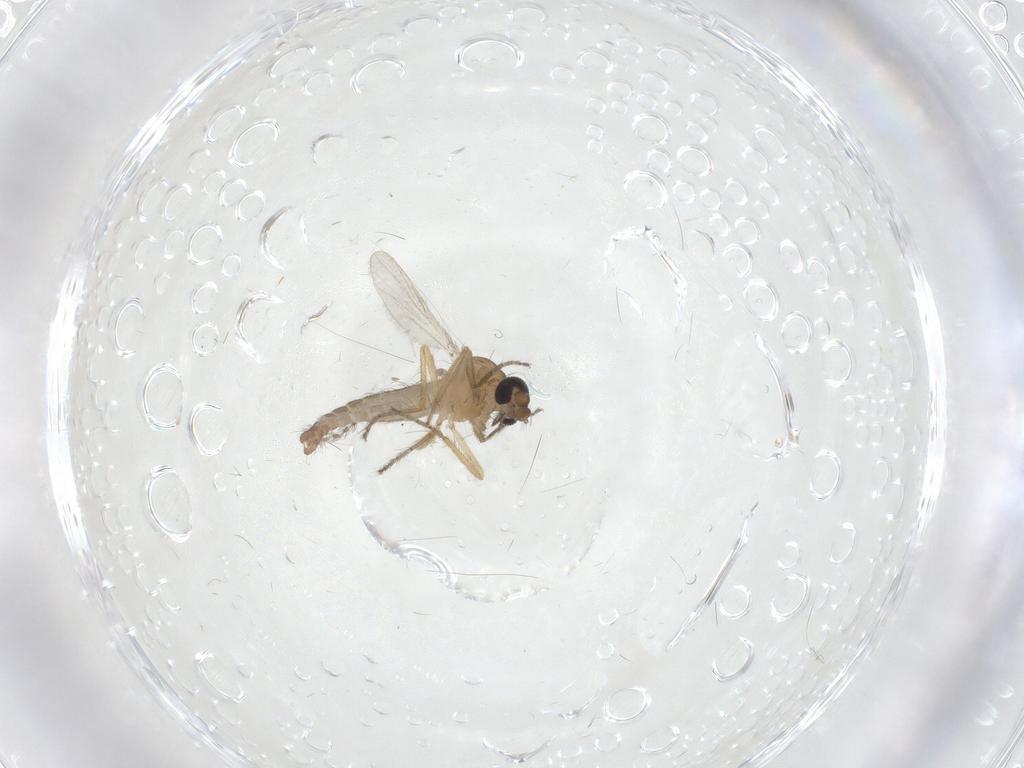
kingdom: Animalia
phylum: Arthropoda
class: Insecta
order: Diptera
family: Ceratopogonidae
